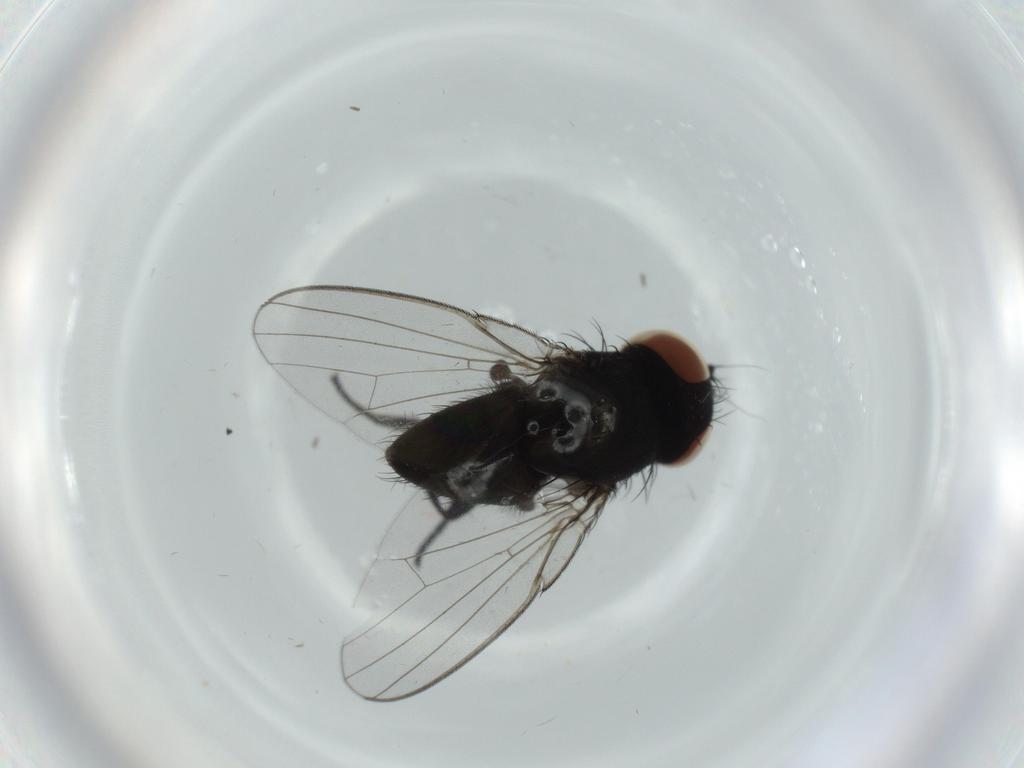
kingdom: Animalia
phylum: Arthropoda
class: Insecta
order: Diptera
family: Milichiidae
